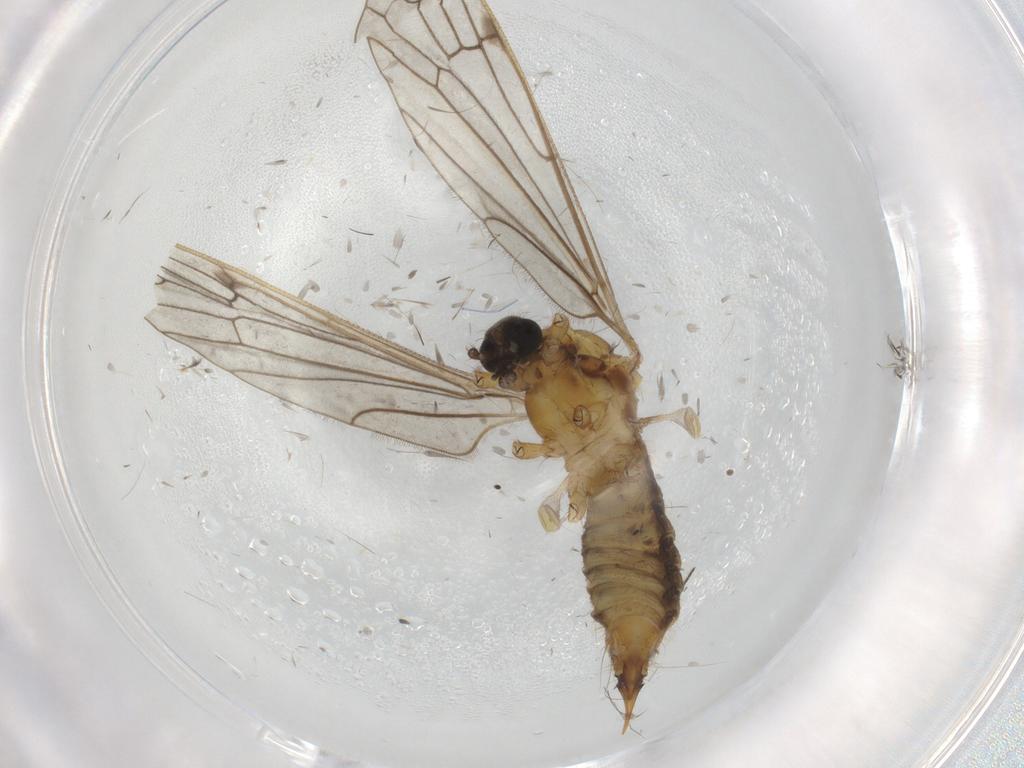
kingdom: Animalia
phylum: Arthropoda
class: Insecta
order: Diptera
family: Limoniidae
